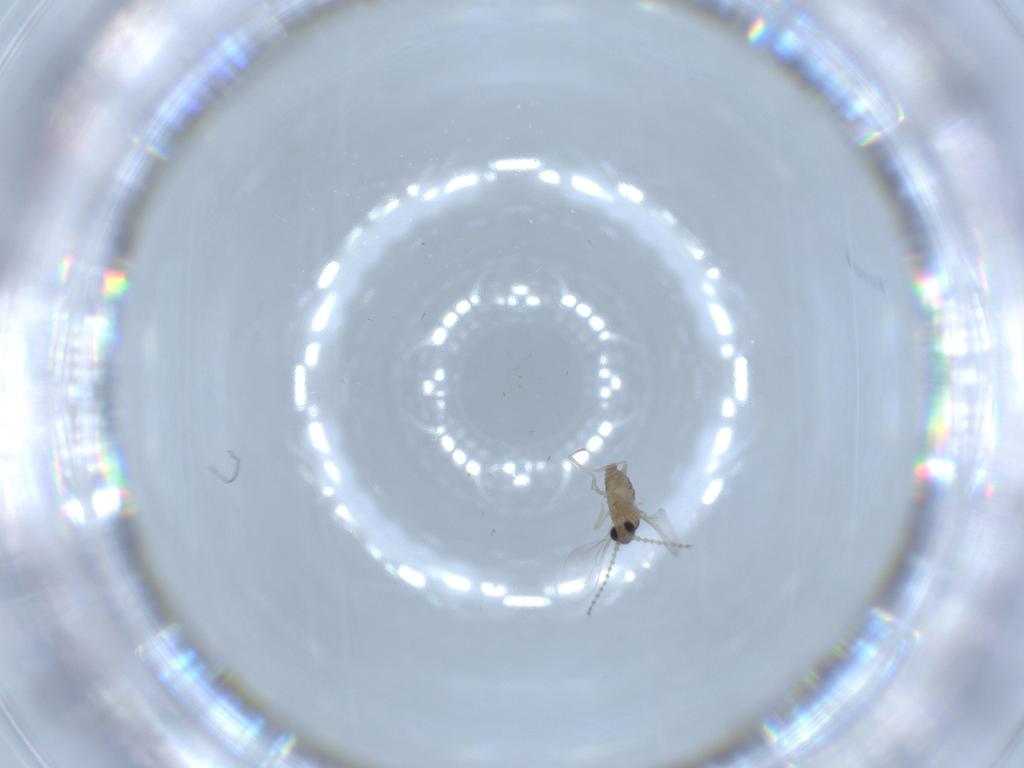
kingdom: Animalia
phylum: Arthropoda
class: Insecta
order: Diptera
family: Cecidomyiidae
